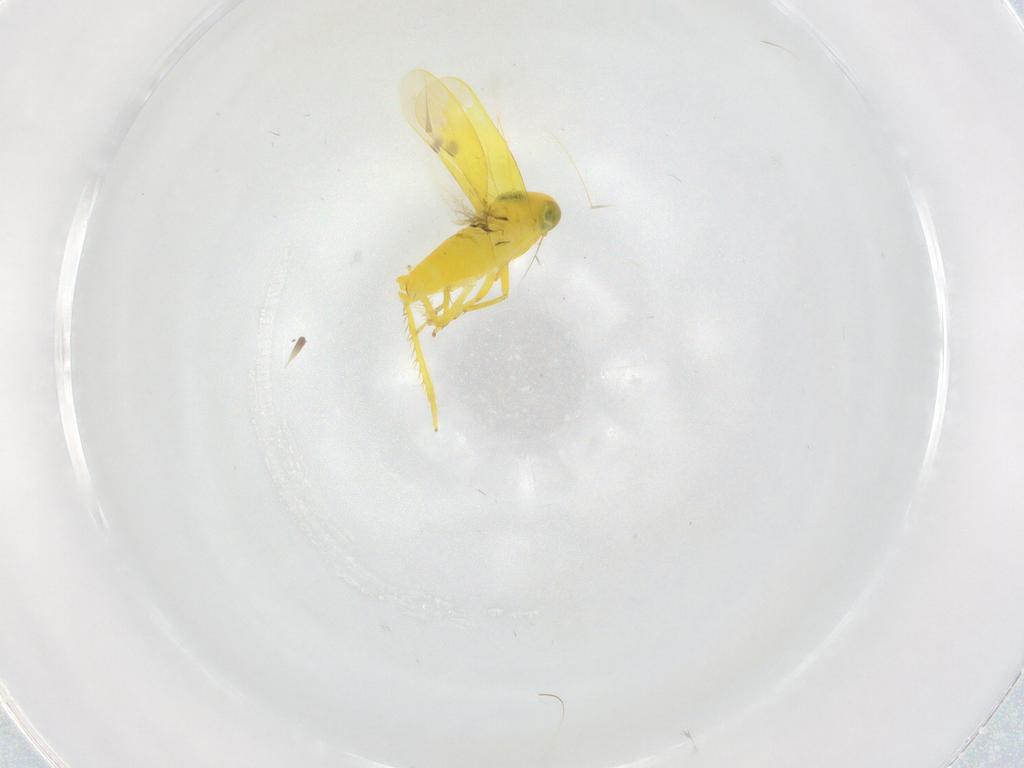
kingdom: Animalia
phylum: Arthropoda
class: Insecta
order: Hemiptera
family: Cicadellidae
